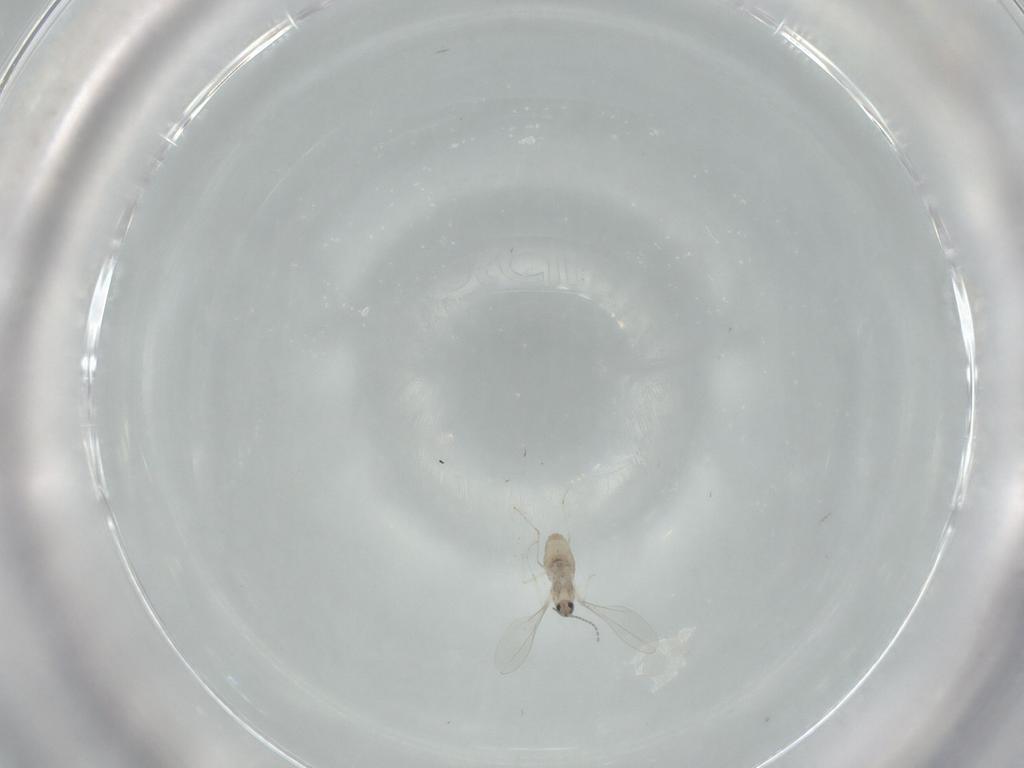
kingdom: Animalia
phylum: Arthropoda
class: Insecta
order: Diptera
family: Cecidomyiidae
